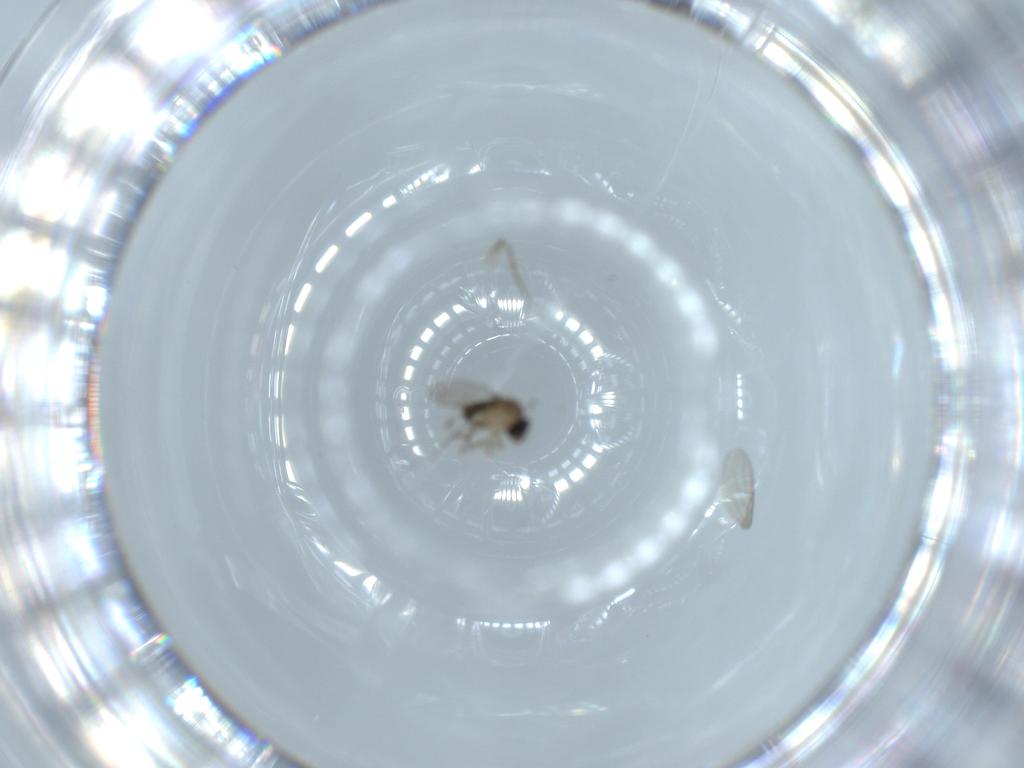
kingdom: Animalia
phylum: Arthropoda
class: Insecta
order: Diptera
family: Phoridae
